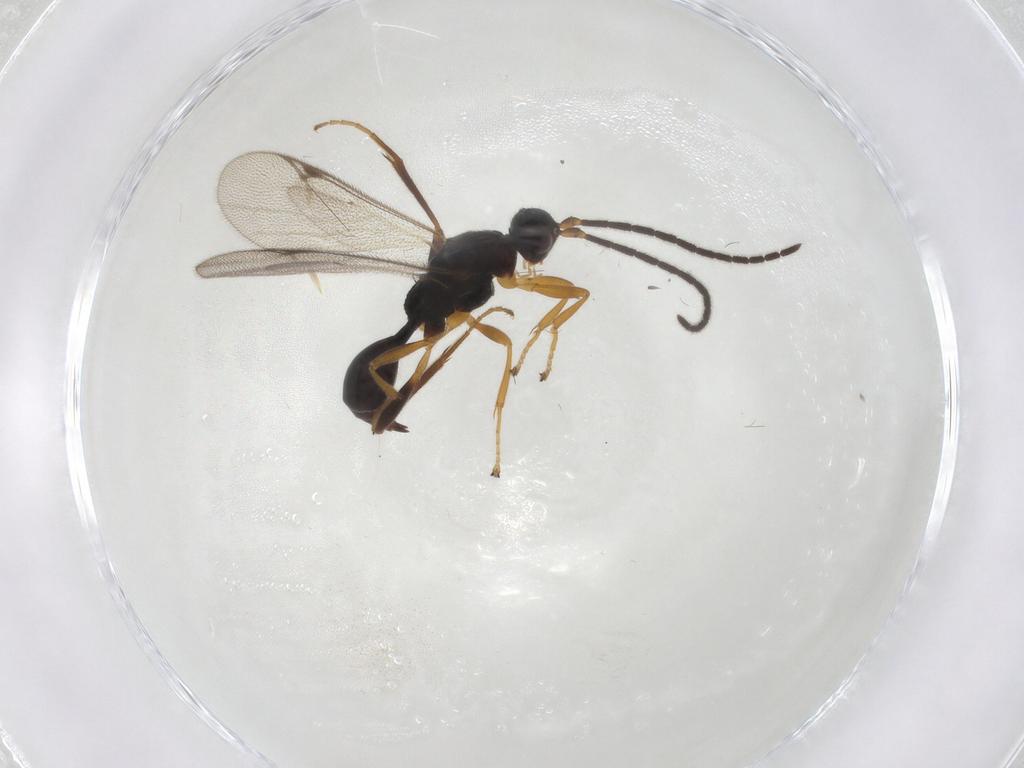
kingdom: Animalia
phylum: Arthropoda
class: Insecta
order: Hymenoptera
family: Proctotrupidae
